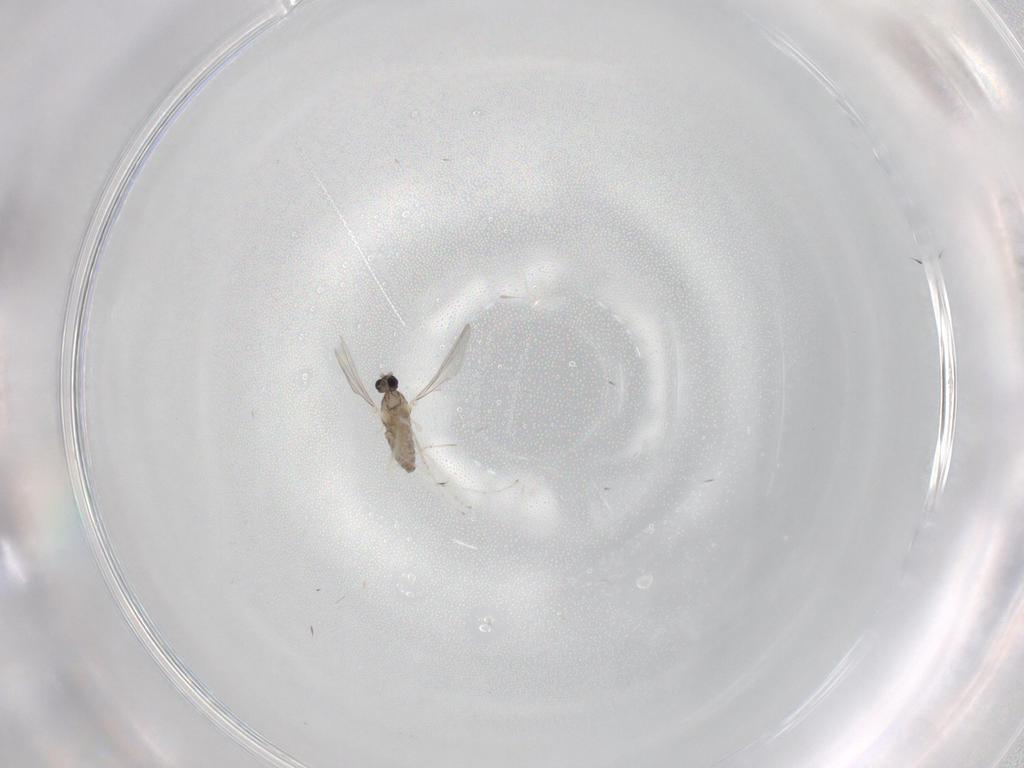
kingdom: Animalia
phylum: Arthropoda
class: Insecta
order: Diptera
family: Cecidomyiidae
